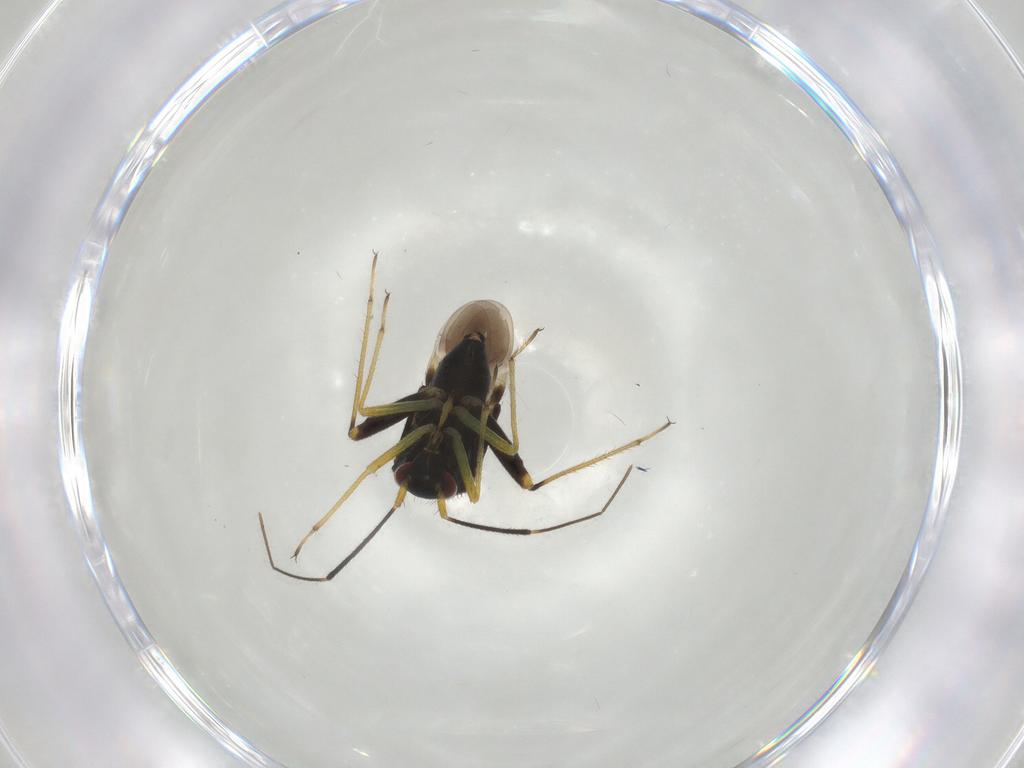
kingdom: Animalia
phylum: Arthropoda
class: Insecta
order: Hemiptera
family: Miridae
